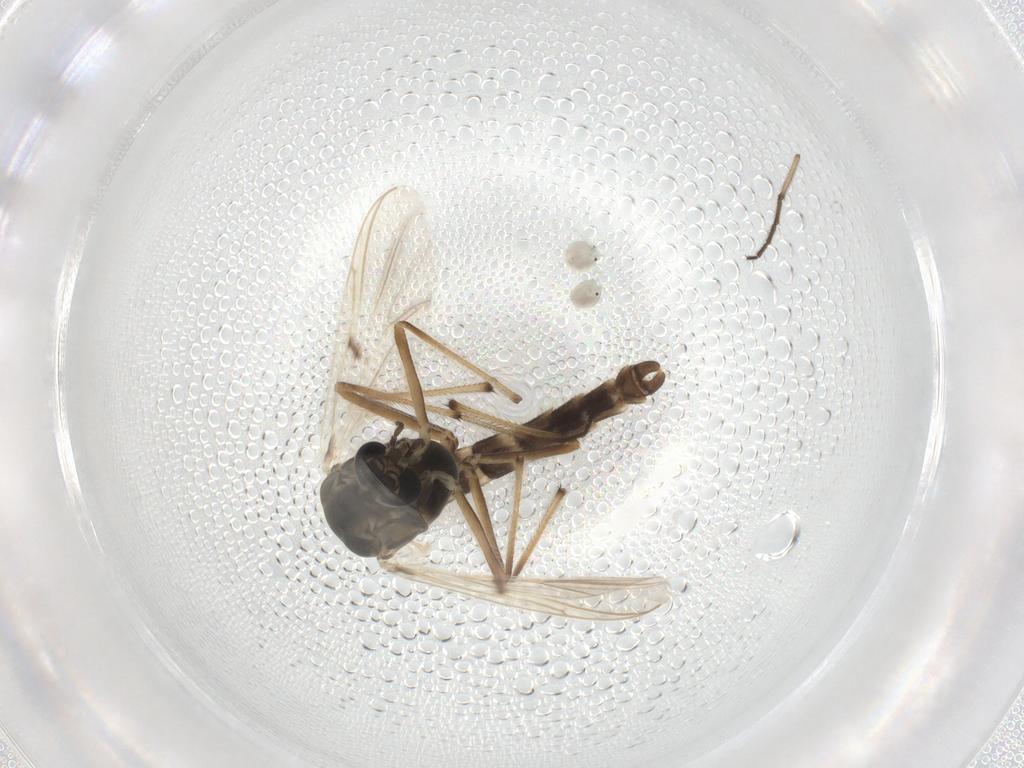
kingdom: Animalia
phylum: Arthropoda
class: Insecta
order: Diptera
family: Chironomidae
